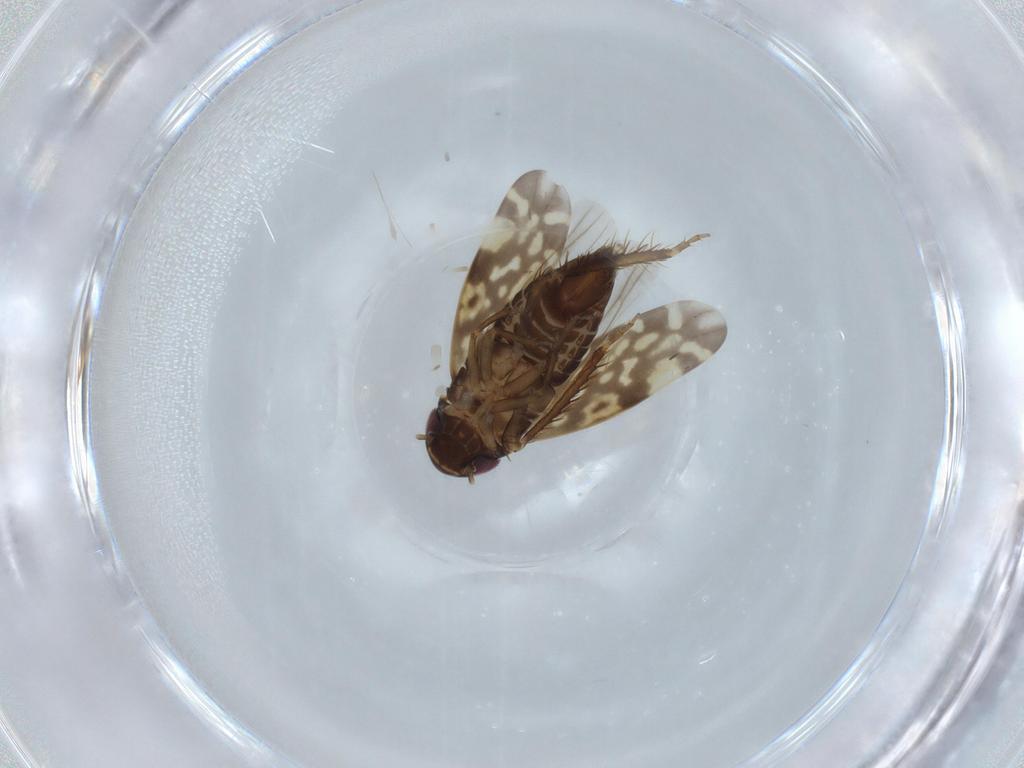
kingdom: Animalia
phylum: Arthropoda
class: Insecta
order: Hemiptera
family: Cicadellidae
